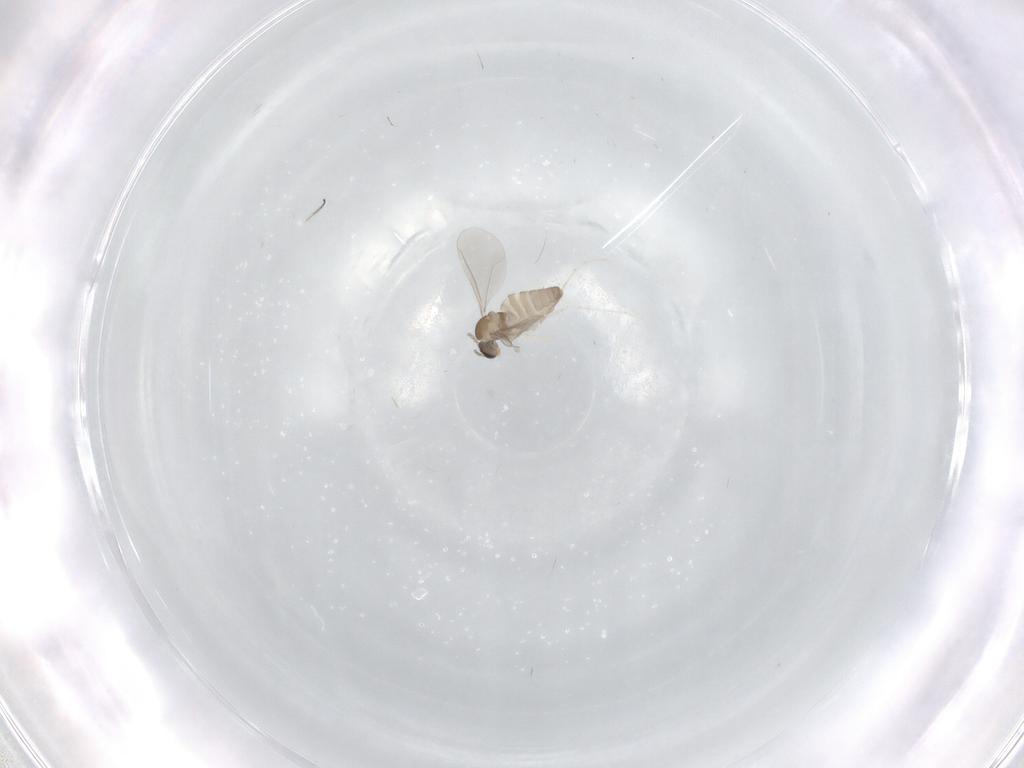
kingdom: Animalia
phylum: Arthropoda
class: Insecta
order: Diptera
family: Cecidomyiidae
